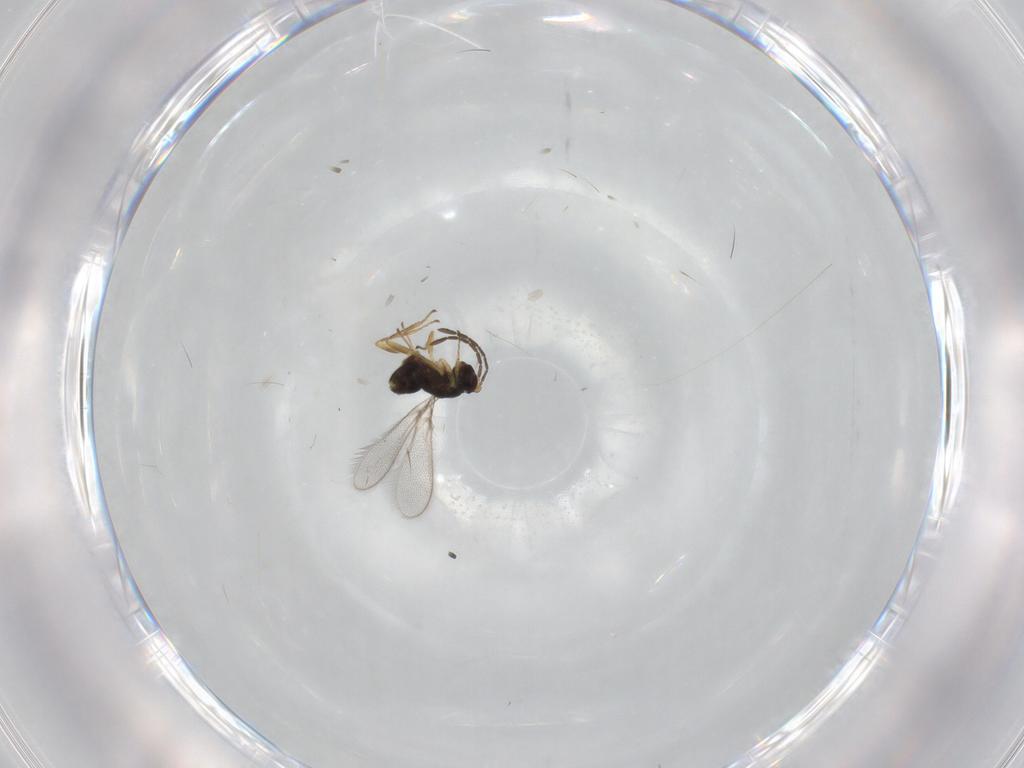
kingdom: Animalia
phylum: Arthropoda
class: Insecta
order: Hymenoptera
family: Mymaridae
